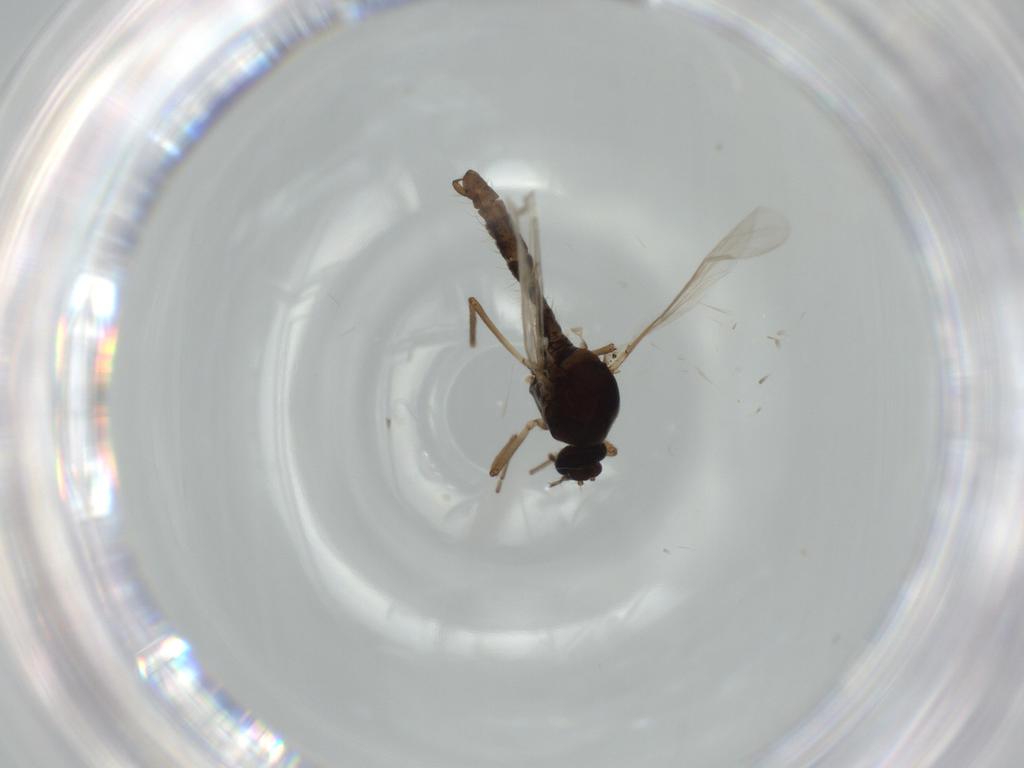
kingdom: Animalia
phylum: Arthropoda
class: Insecta
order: Diptera
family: Ceratopogonidae
